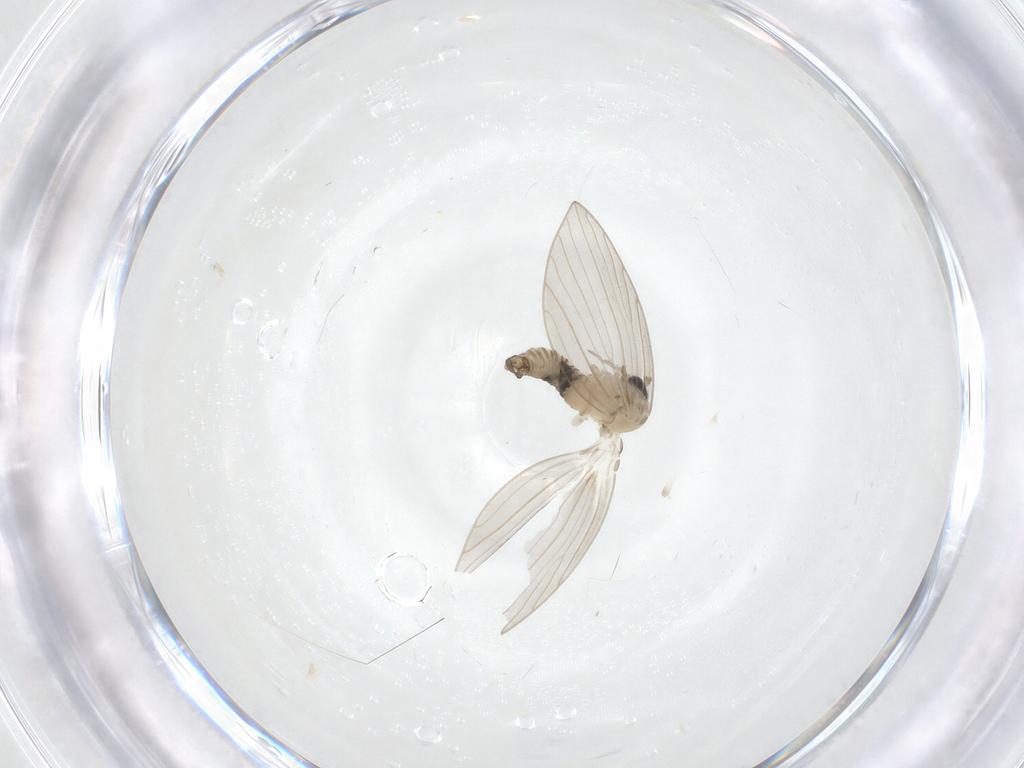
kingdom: Animalia
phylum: Arthropoda
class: Insecta
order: Diptera
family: Psychodidae
